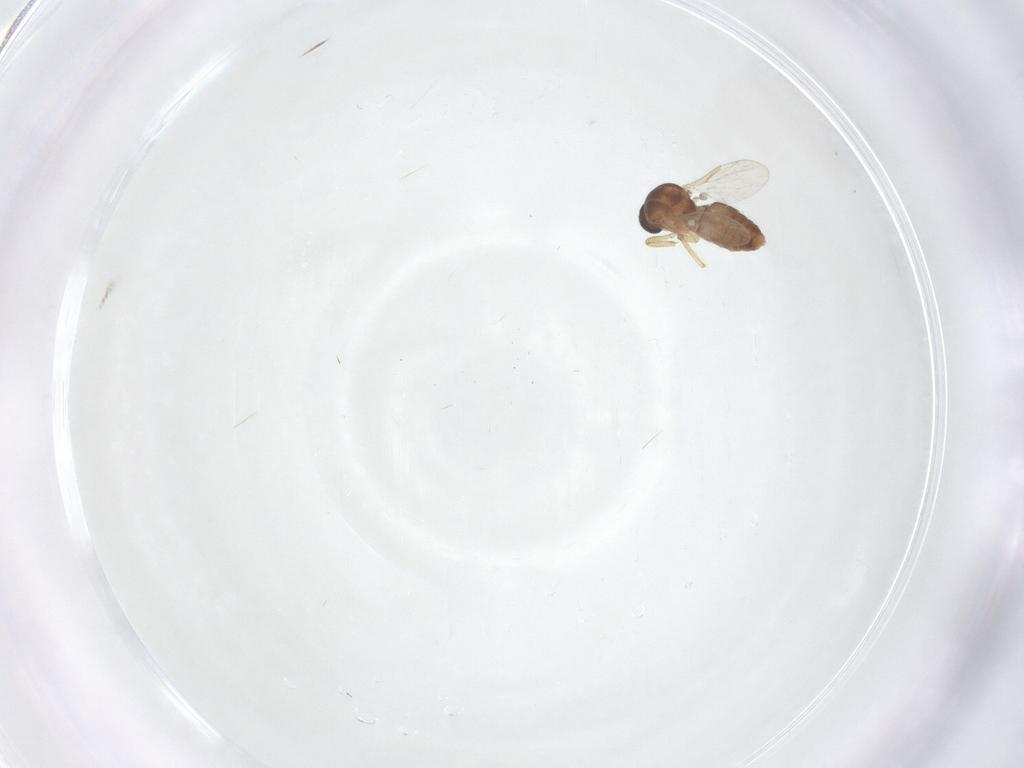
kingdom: Animalia
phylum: Arthropoda
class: Insecta
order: Diptera
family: Ceratopogonidae
